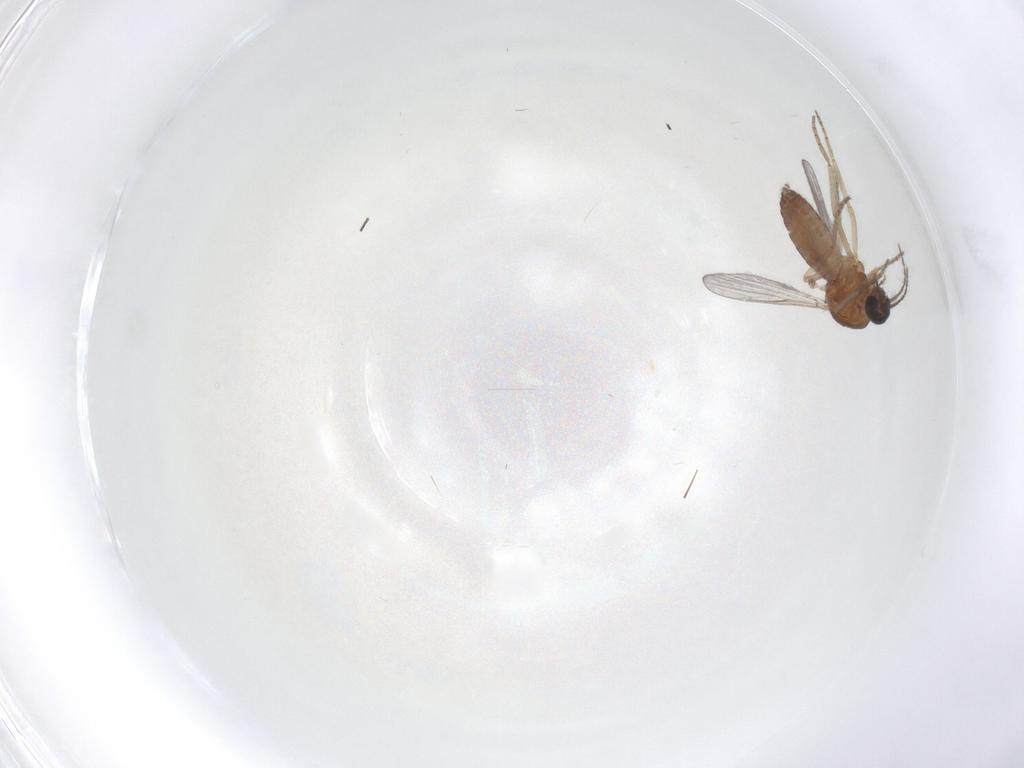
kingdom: Animalia
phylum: Arthropoda
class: Insecta
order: Diptera
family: Ceratopogonidae
